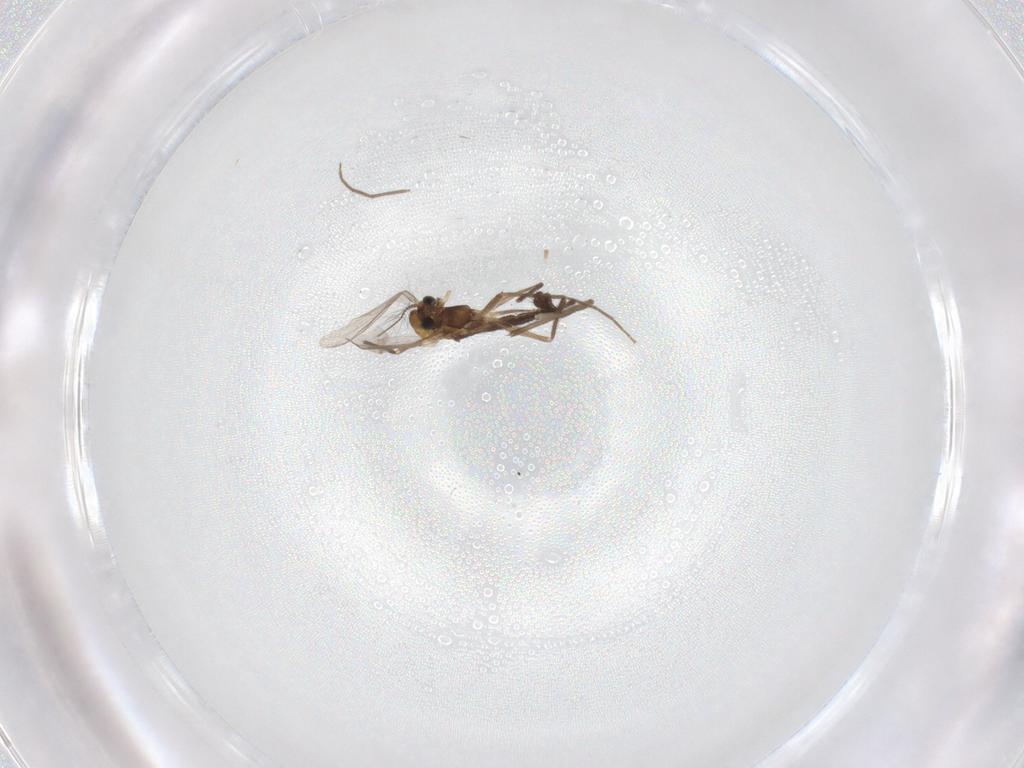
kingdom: Animalia
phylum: Arthropoda
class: Insecta
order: Diptera
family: Chironomidae
